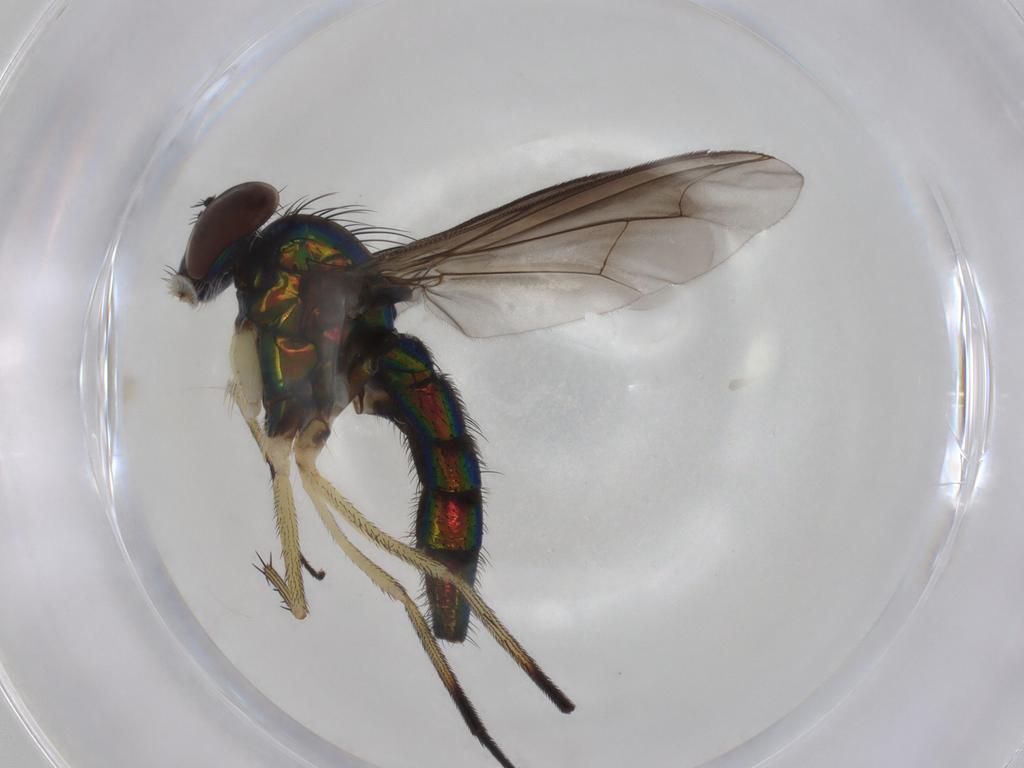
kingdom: Animalia
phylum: Arthropoda
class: Insecta
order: Diptera
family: Dolichopodidae
